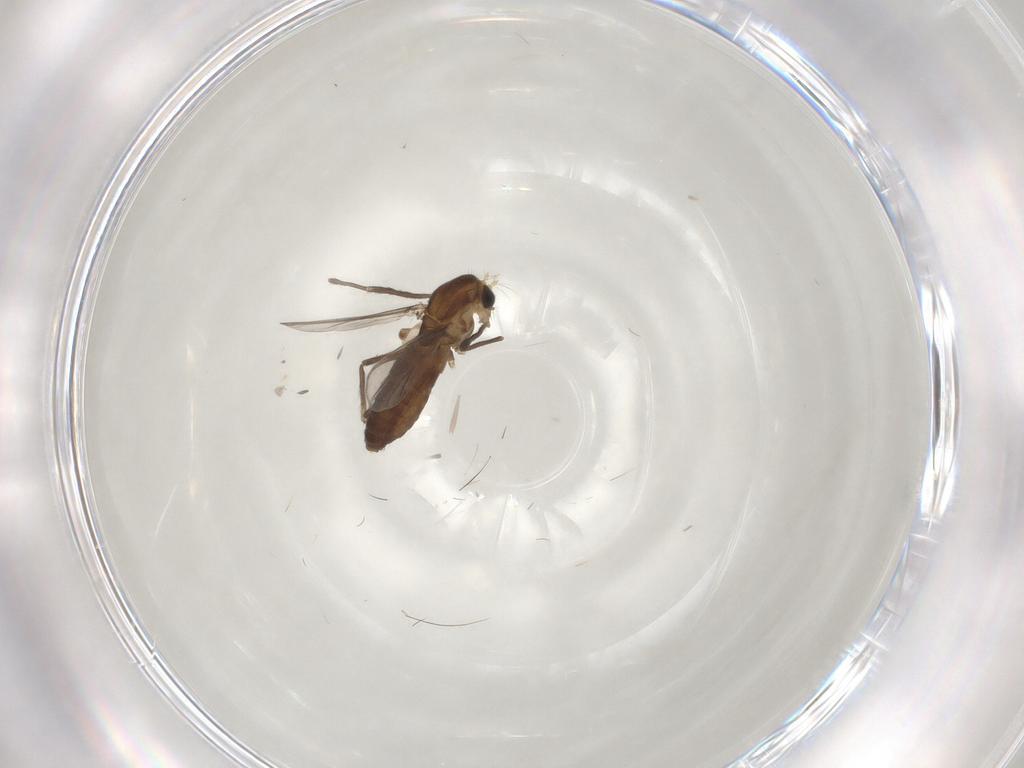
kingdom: Animalia
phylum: Arthropoda
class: Insecta
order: Diptera
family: Chironomidae
